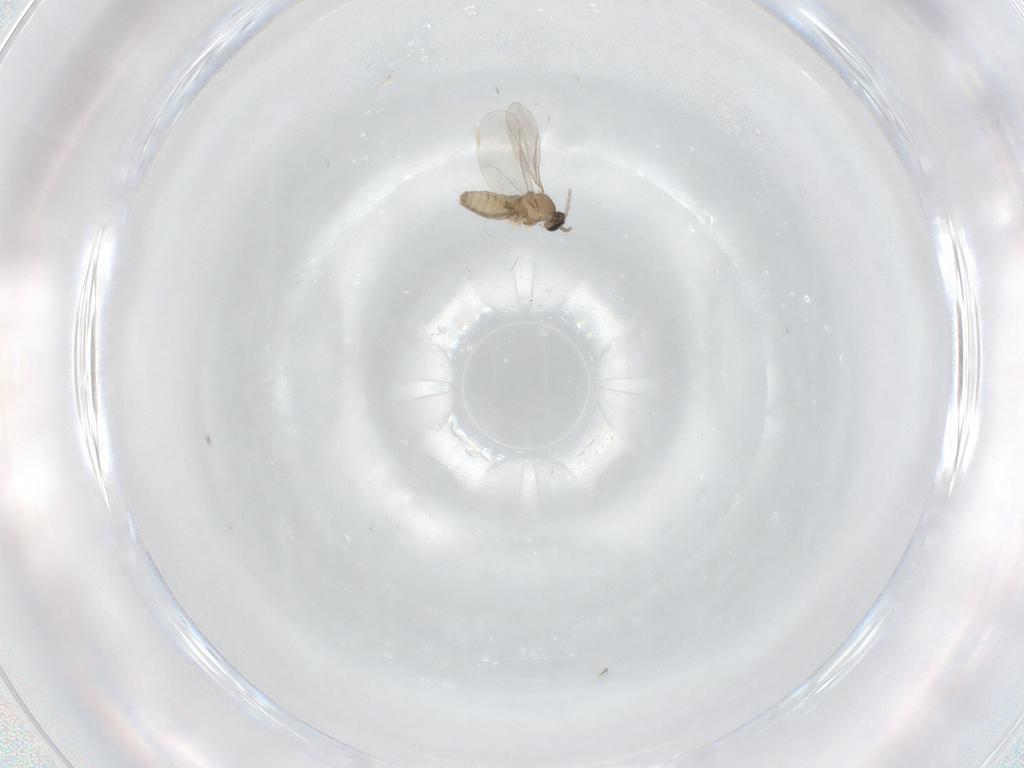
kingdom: Animalia
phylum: Arthropoda
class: Insecta
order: Diptera
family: Cecidomyiidae
